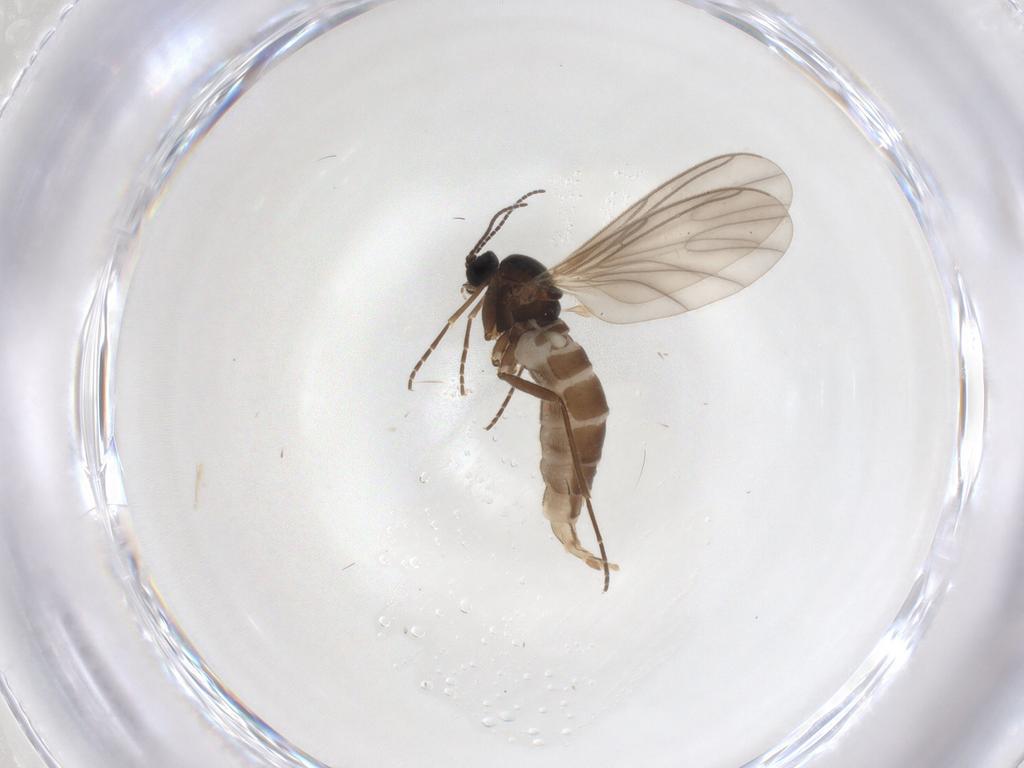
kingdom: Animalia
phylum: Arthropoda
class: Insecta
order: Diptera
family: Sciaridae
